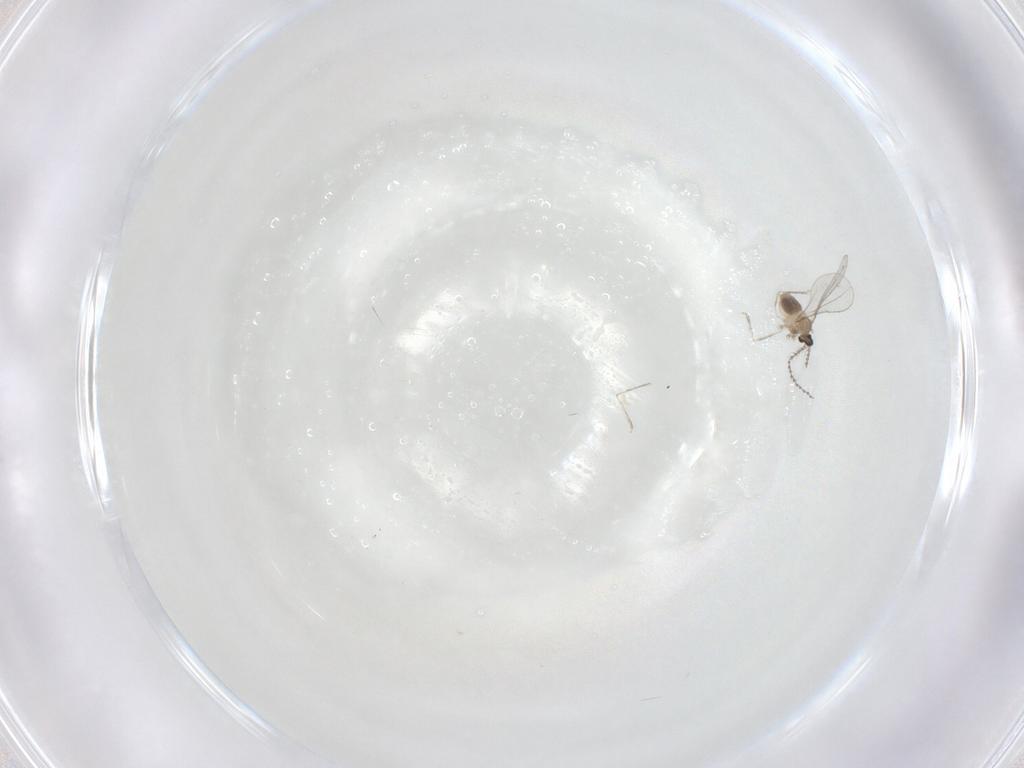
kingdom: Animalia
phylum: Arthropoda
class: Insecta
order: Diptera
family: Cecidomyiidae
